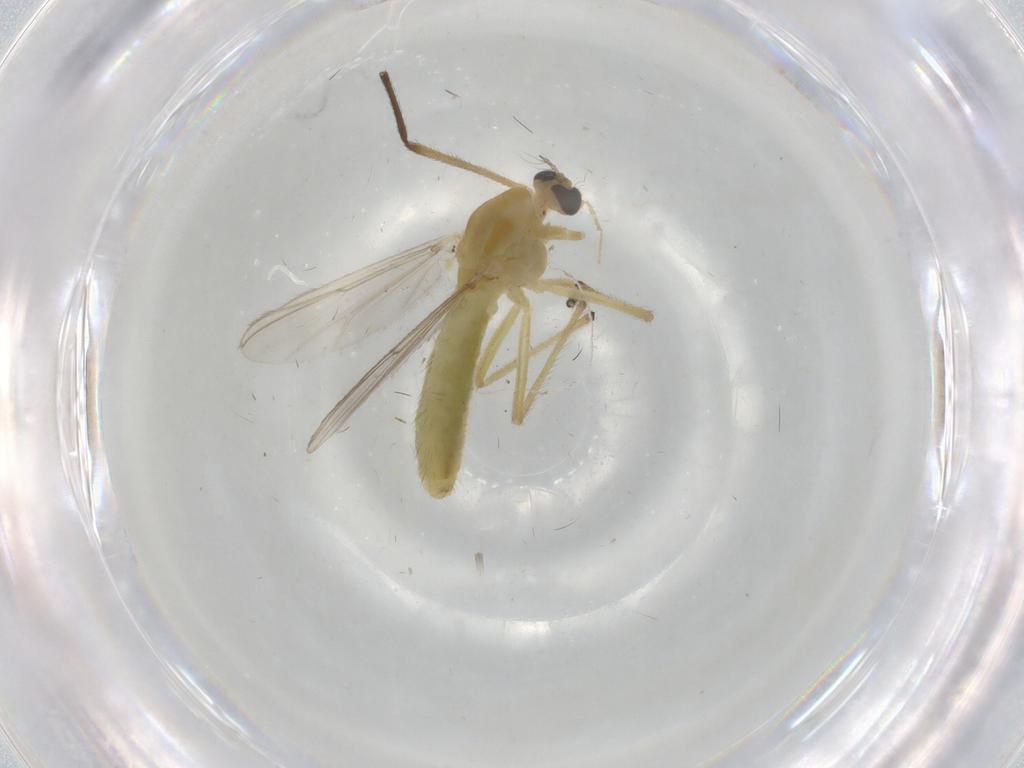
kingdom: Animalia
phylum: Arthropoda
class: Insecta
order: Diptera
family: Chironomidae
